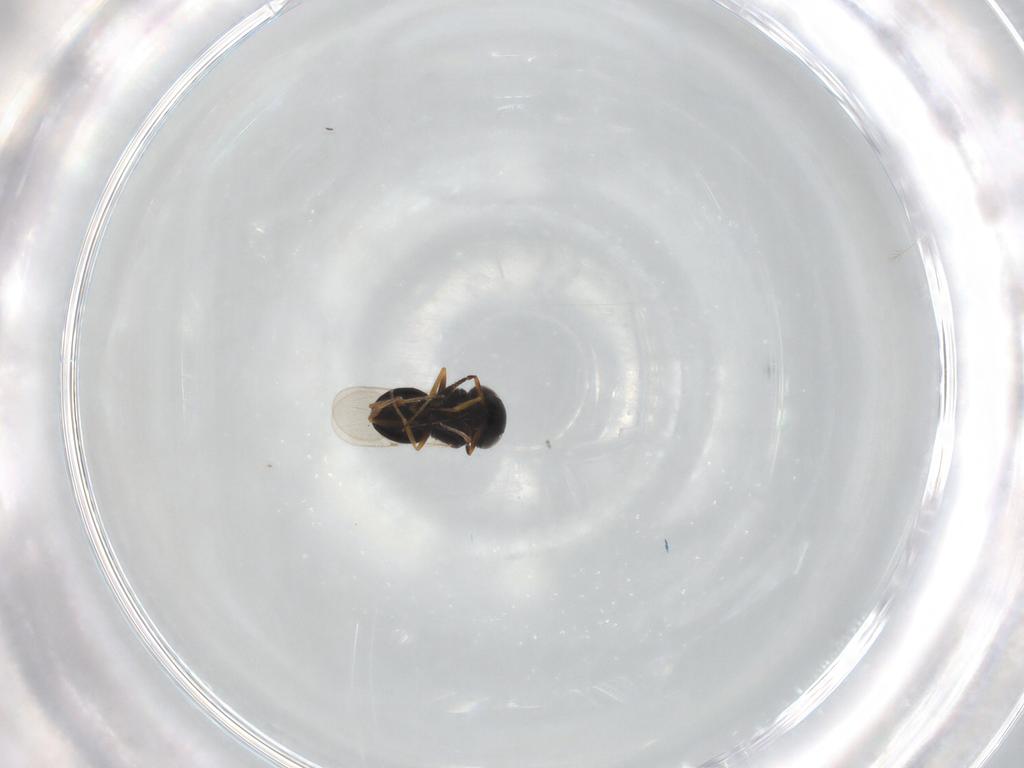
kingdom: Animalia
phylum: Arthropoda
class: Insecta
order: Hymenoptera
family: Scelionidae
